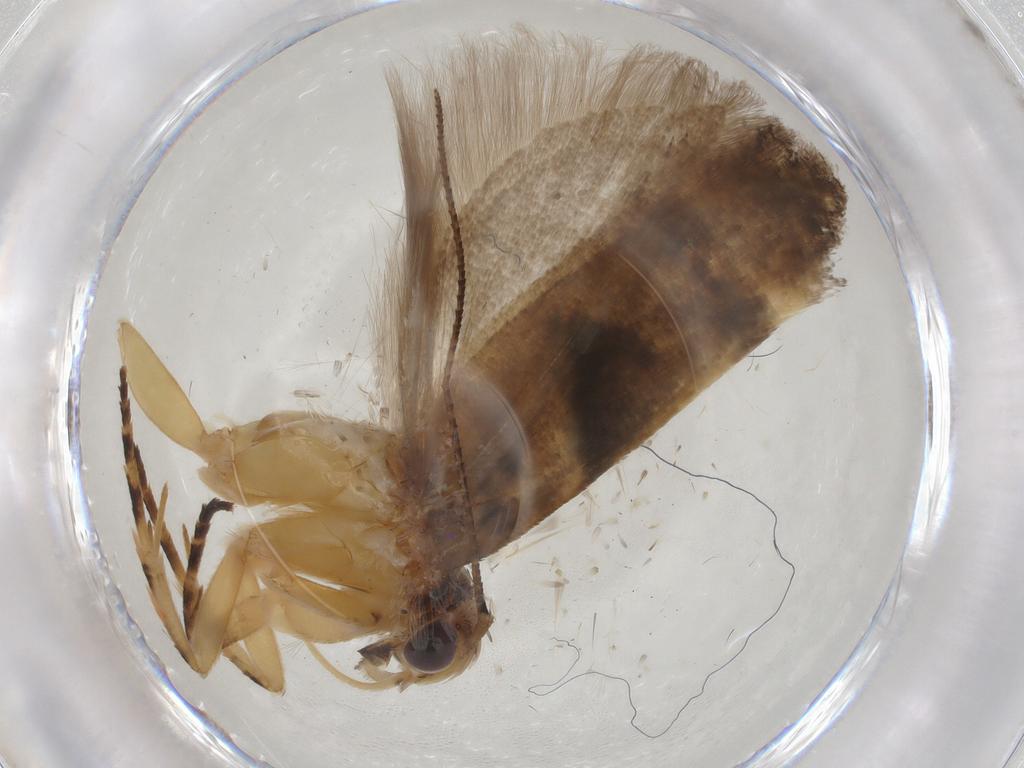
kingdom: Animalia
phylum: Arthropoda
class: Insecta
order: Lepidoptera
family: Gelechiidae
